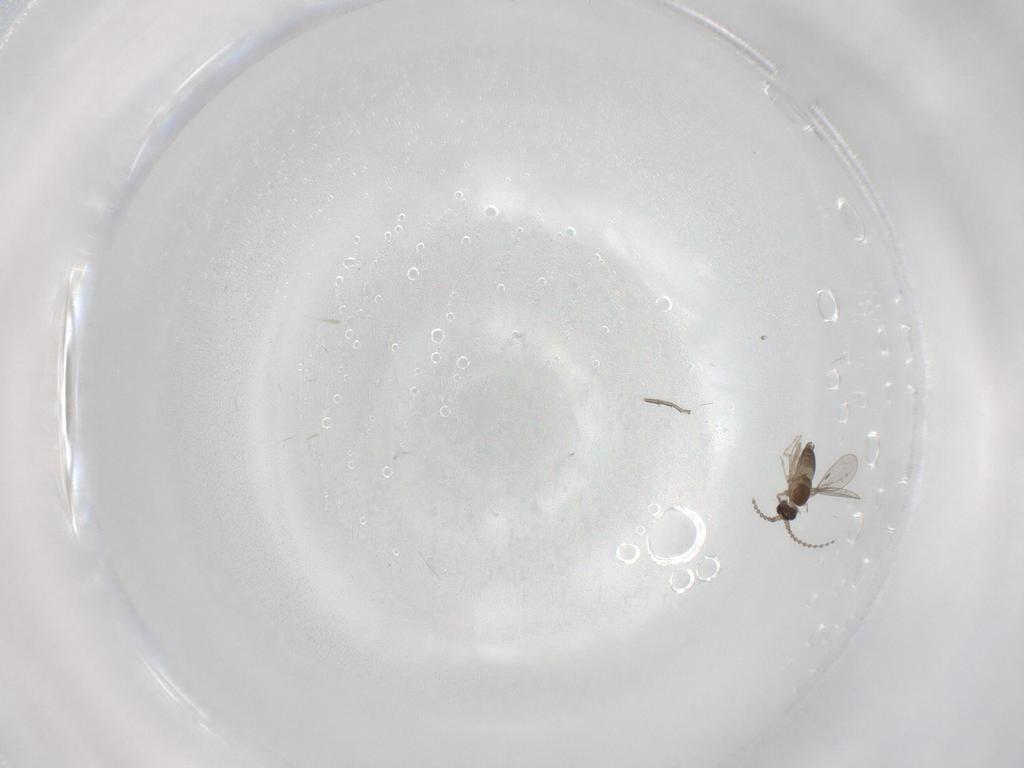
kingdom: Animalia
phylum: Arthropoda
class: Insecta
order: Diptera
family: Cecidomyiidae
